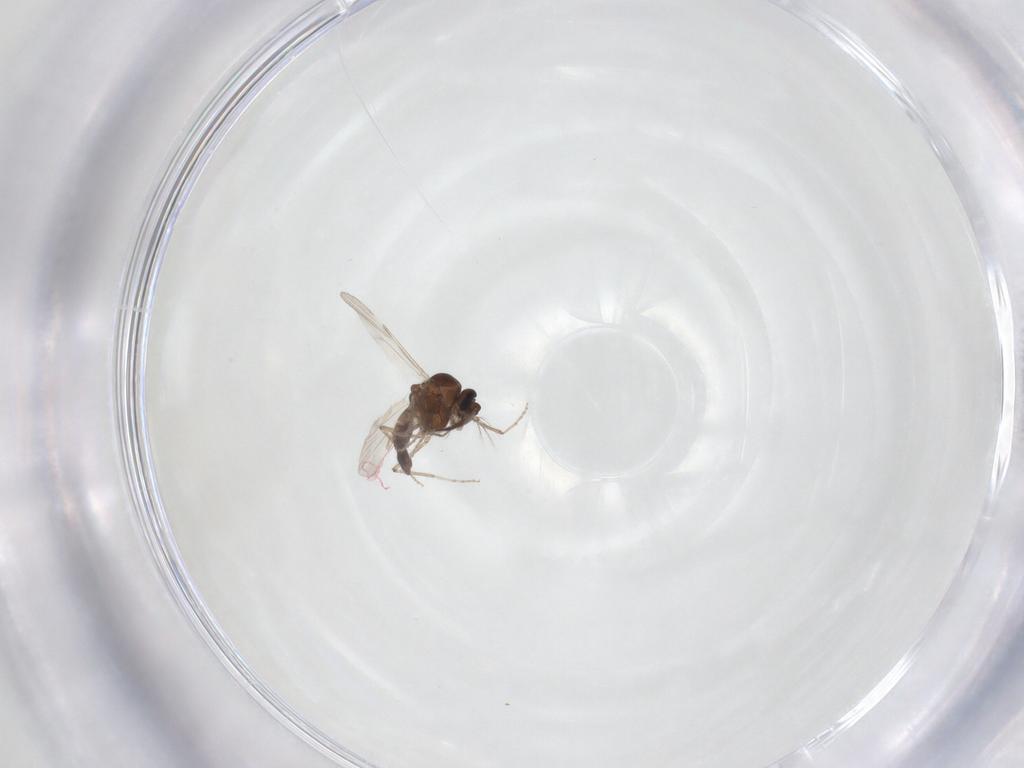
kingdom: Animalia
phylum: Arthropoda
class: Insecta
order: Diptera
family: Ceratopogonidae
